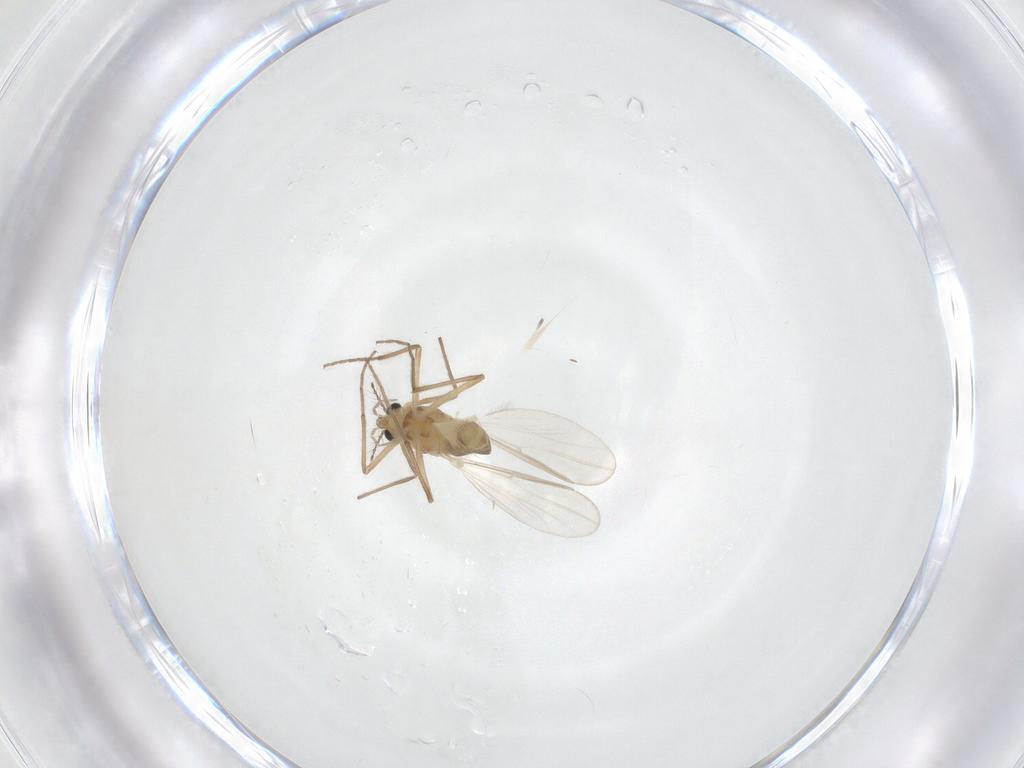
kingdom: Animalia
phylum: Arthropoda
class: Insecta
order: Diptera
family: Chironomidae
